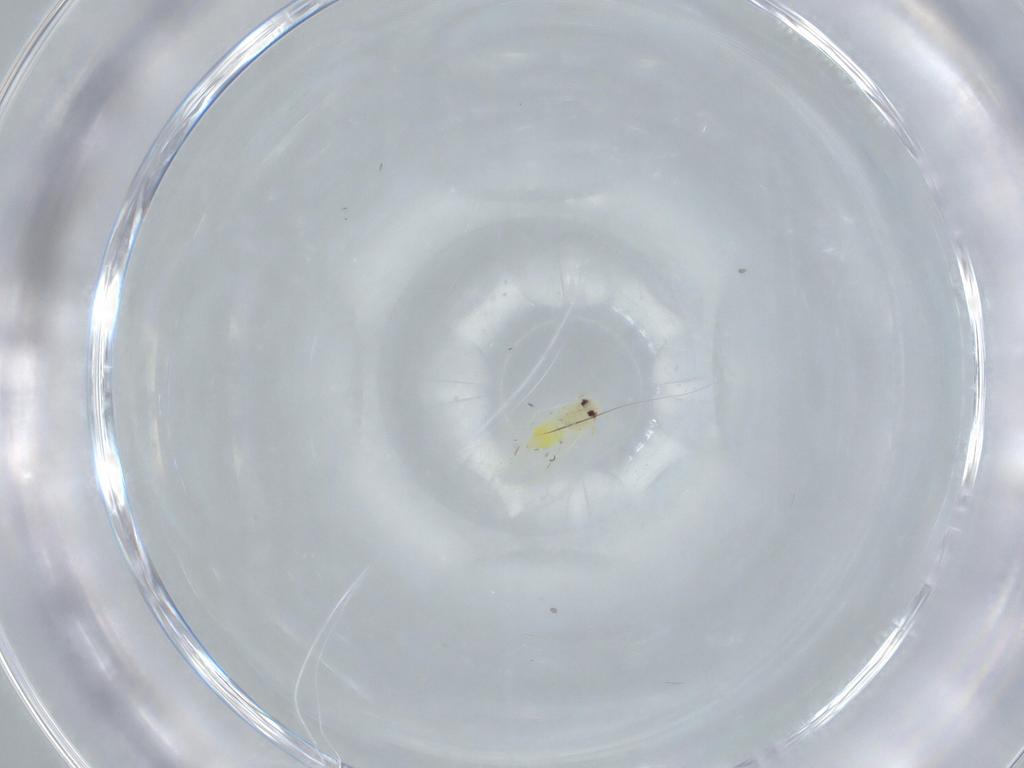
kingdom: Animalia
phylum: Arthropoda
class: Insecta
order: Hemiptera
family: Aleyrodidae
